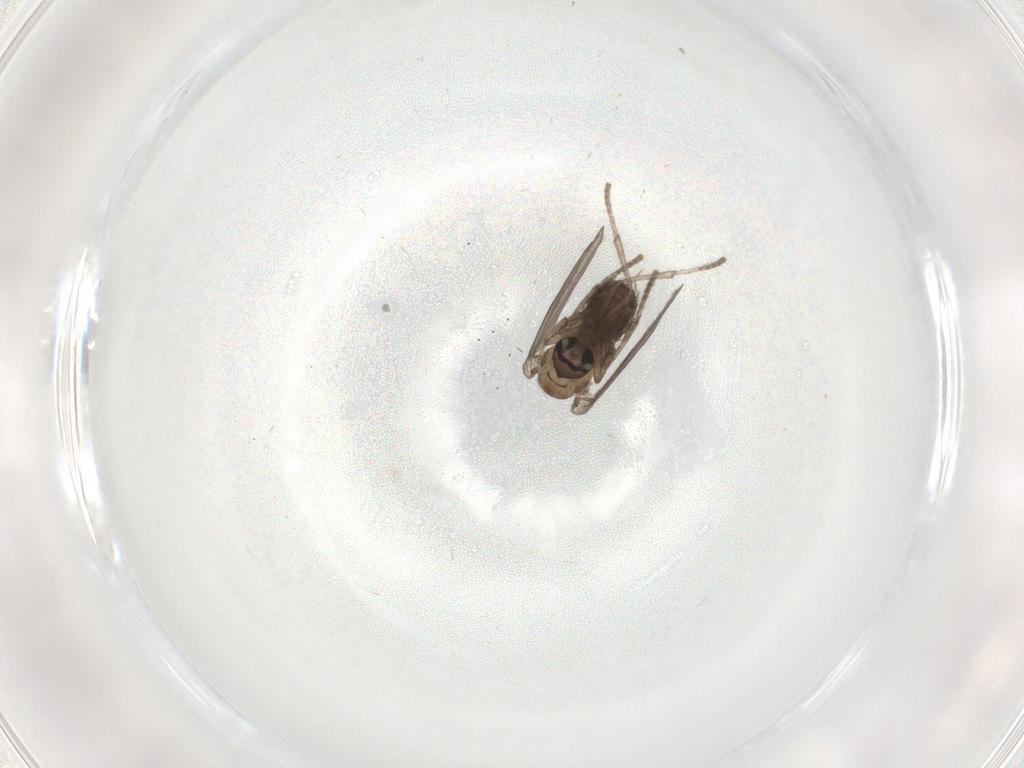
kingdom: Animalia
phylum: Arthropoda
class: Insecta
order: Diptera
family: Psychodidae
